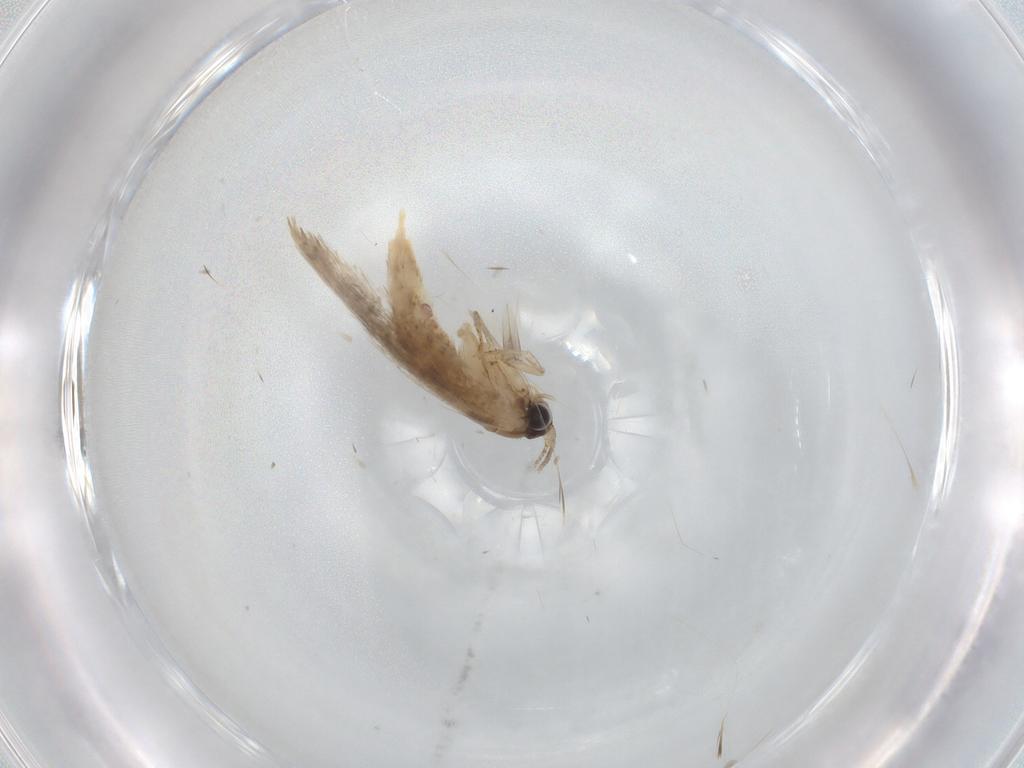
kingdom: Animalia
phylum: Arthropoda
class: Insecta
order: Lepidoptera
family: Tineidae
